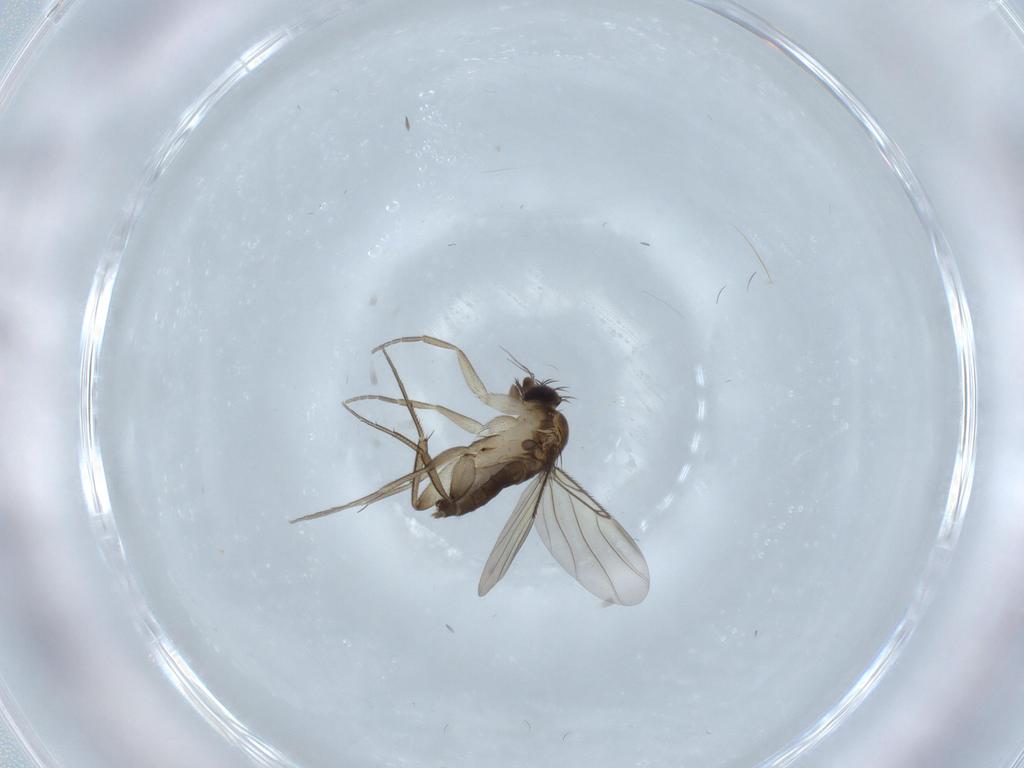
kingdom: Animalia
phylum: Arthropoda
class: Insecta
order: Diptera
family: Phoridae
